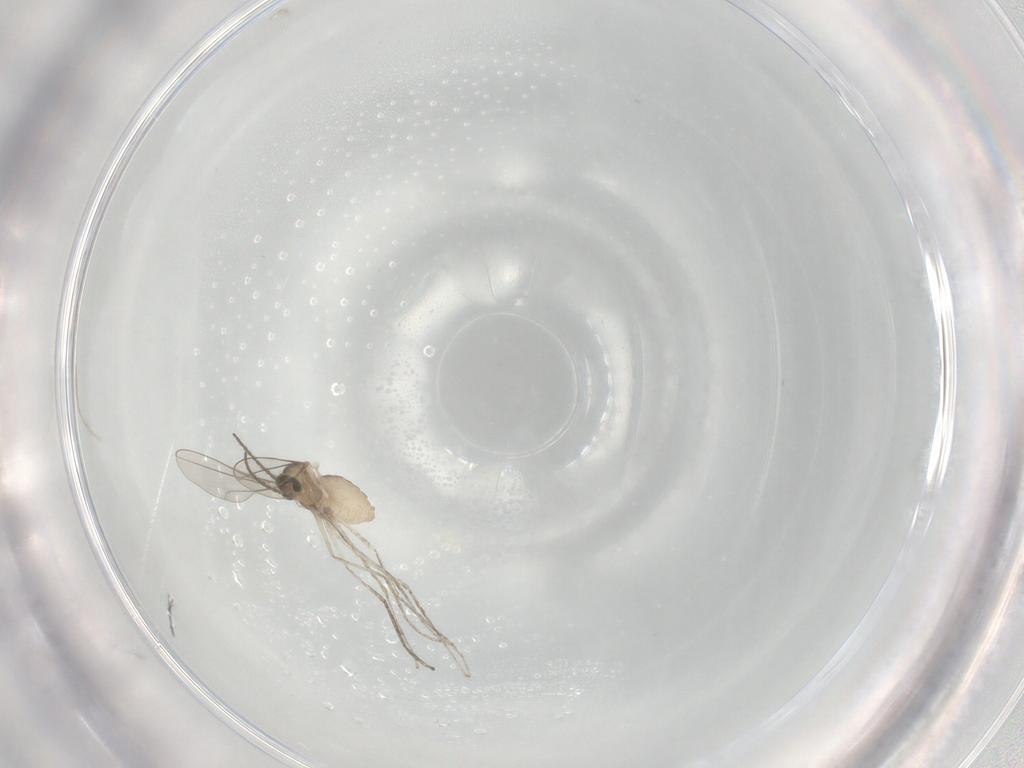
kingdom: Animalia
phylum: Arthropoda
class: Insecta
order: Diptera
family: Cecidomyiidae
